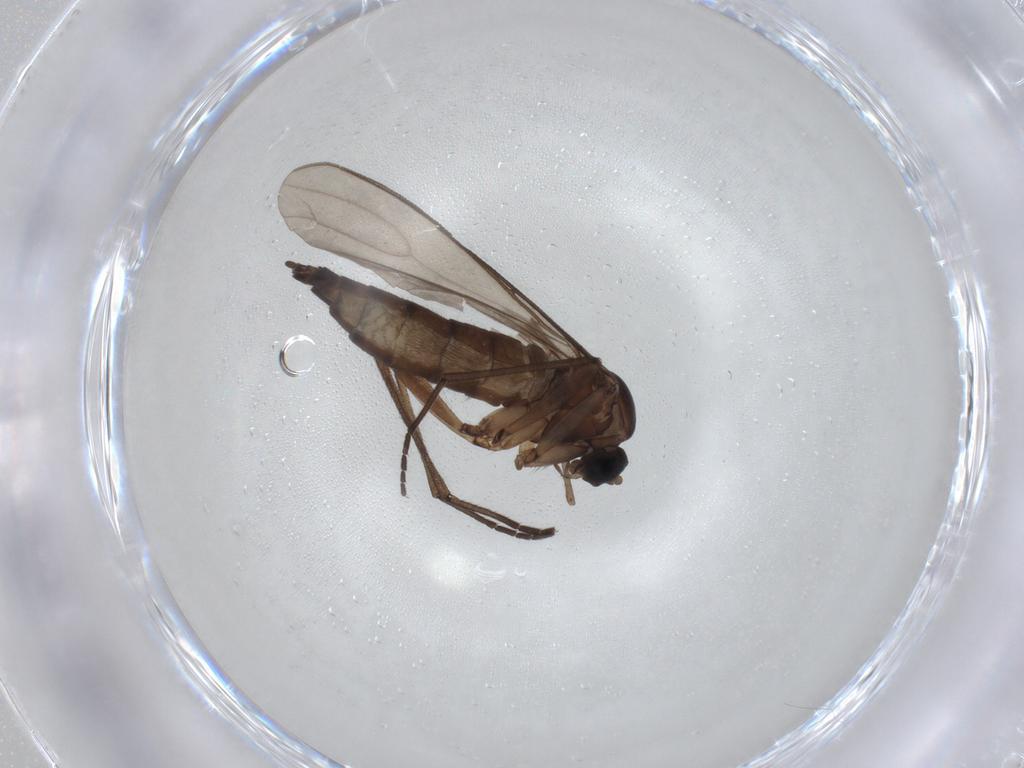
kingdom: Animalia
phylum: Arthropoda
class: Insecta
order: Diptera
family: Sciaridae
